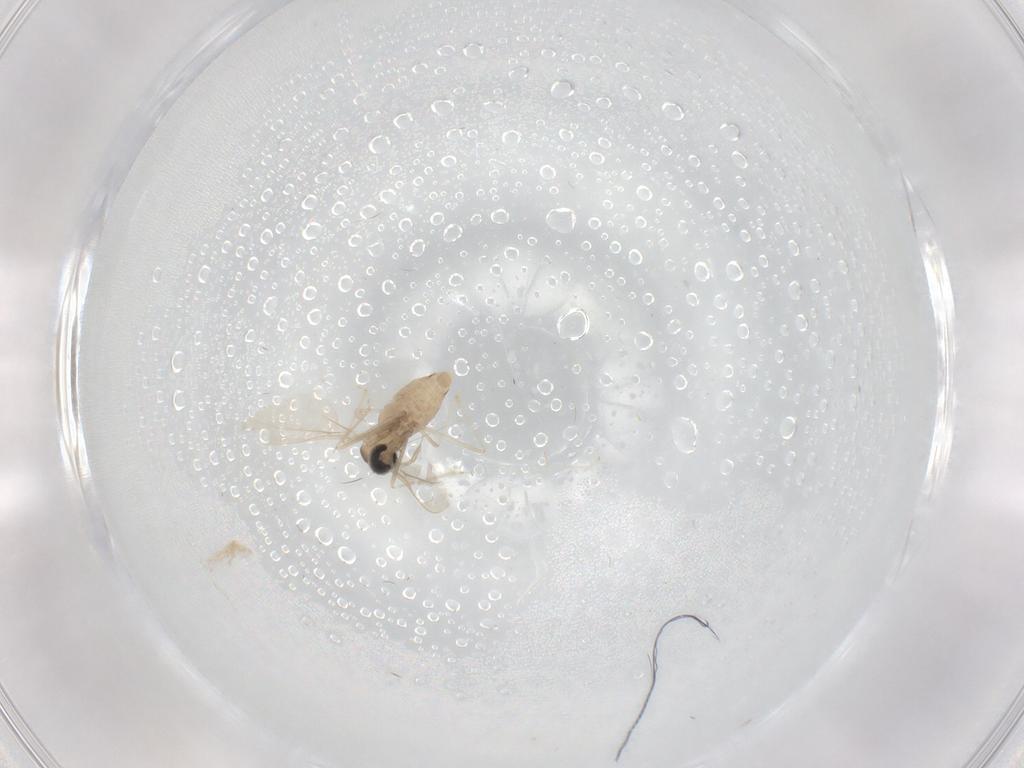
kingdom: Animalia
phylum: Arthropoda
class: Insecta
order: Diptera
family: Cecidomyiidae
